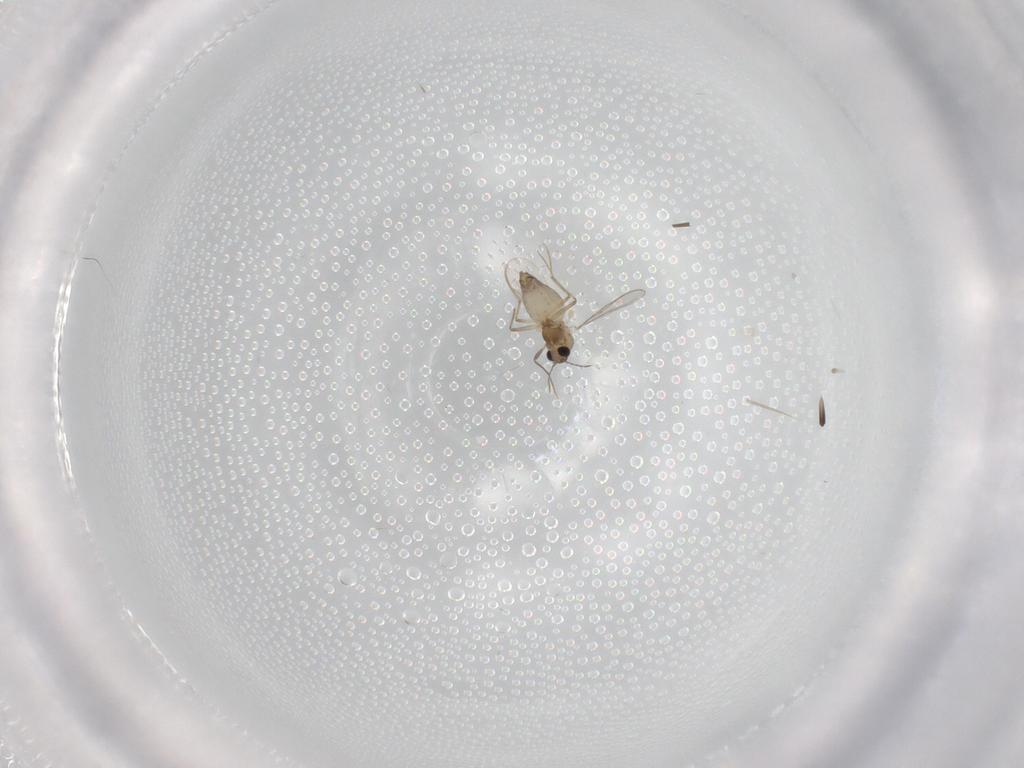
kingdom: Animalia
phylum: Arthropoda
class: Insecta
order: Diptera
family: Chironomidae
